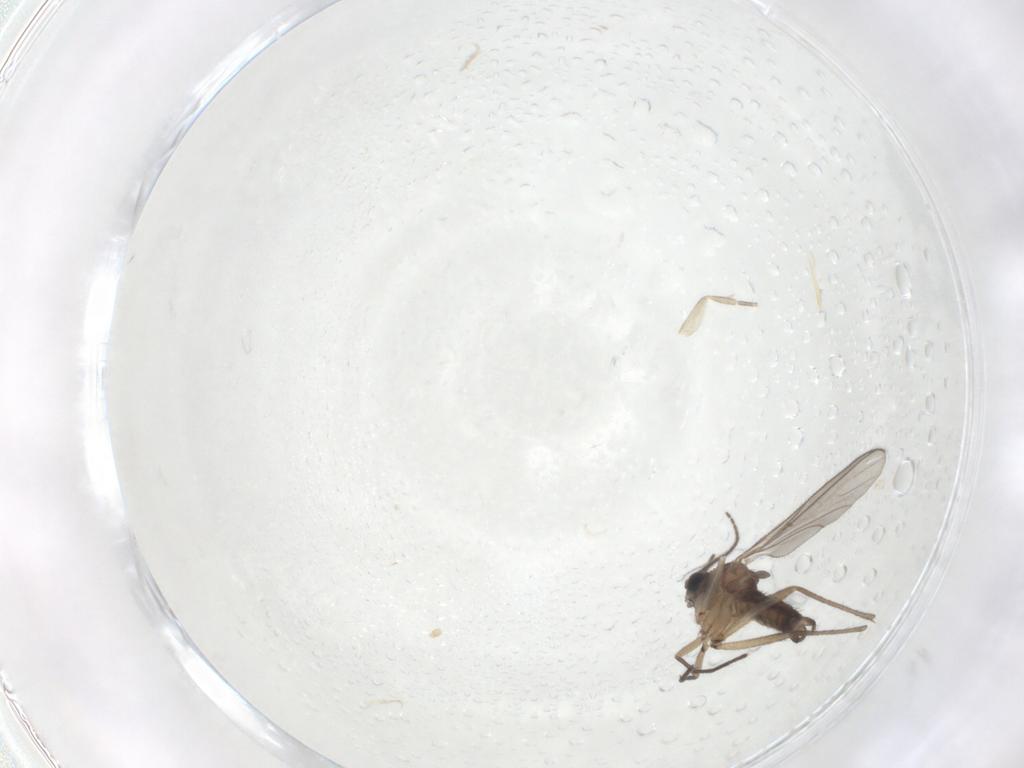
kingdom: Animalia
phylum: Arthropoda
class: Insecta
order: Diptera
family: Sciaridae
